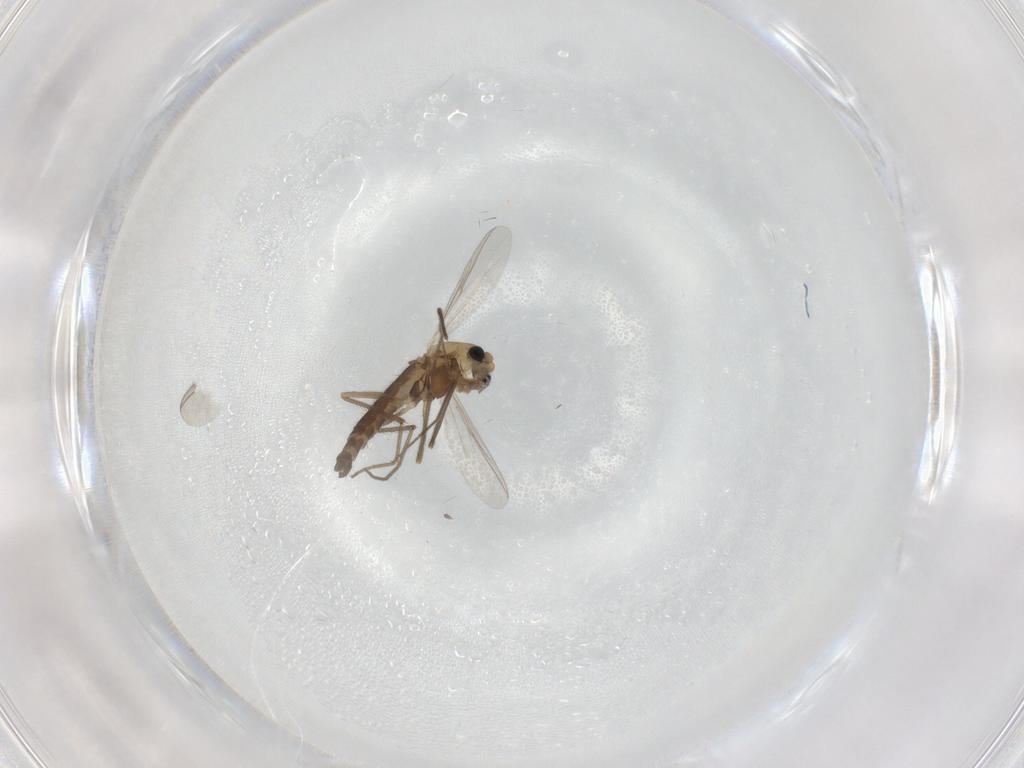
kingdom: Animalia
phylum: Arthropoda
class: Insecta
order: Diptera
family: Chironomidae
